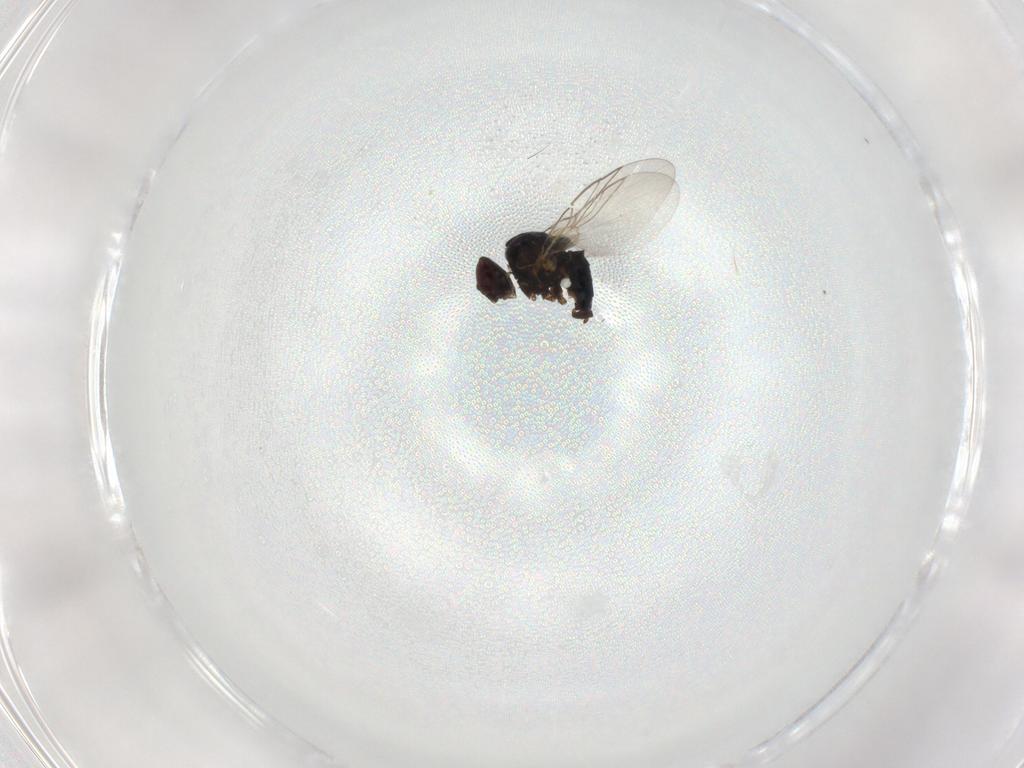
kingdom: Animalia
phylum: Arthropoda
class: Insecta
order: Diptera
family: Agromyzidae
